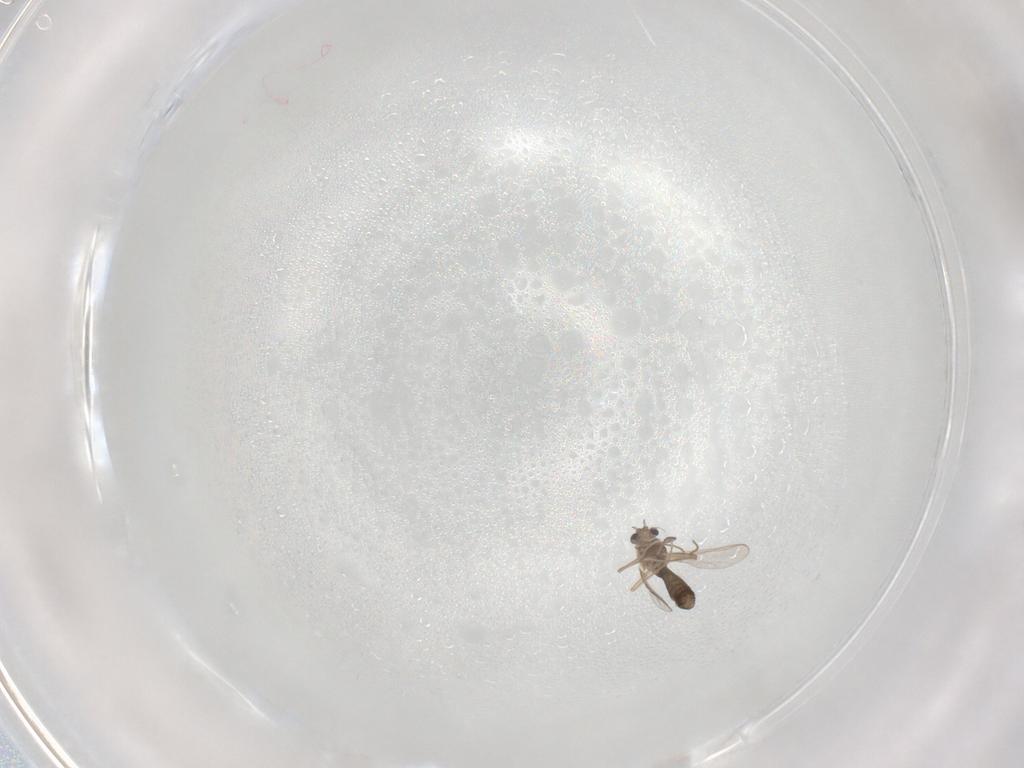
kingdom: Animalia
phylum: Arthropoda
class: Insecta
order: Diptera
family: Chironomidae
